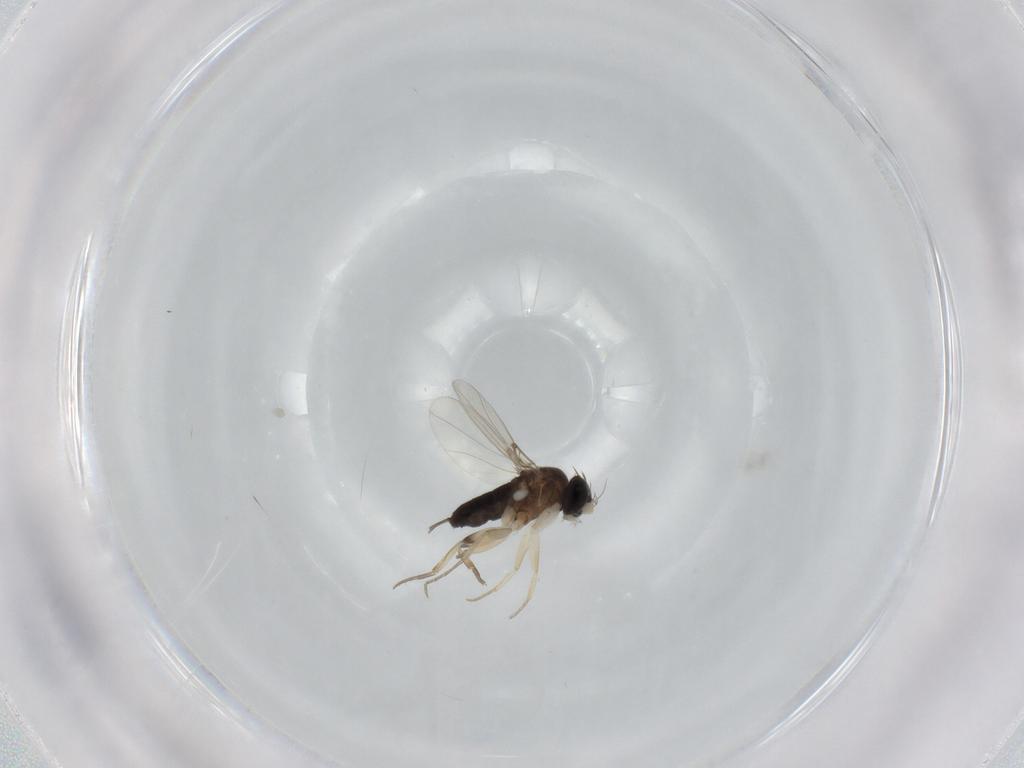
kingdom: Animalia
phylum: Arthropoda
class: Insecta
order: Diptera
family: Phoridae
